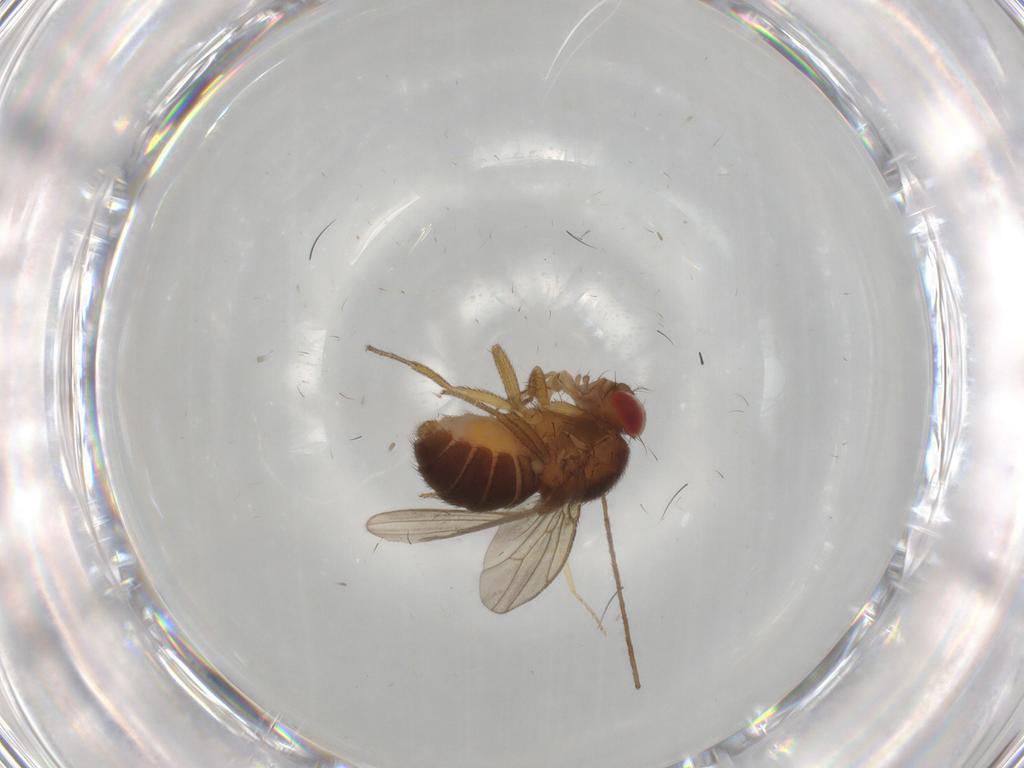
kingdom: Animalia
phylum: Arthropoda
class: Insecta
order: Diptera
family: Drosophilidae
